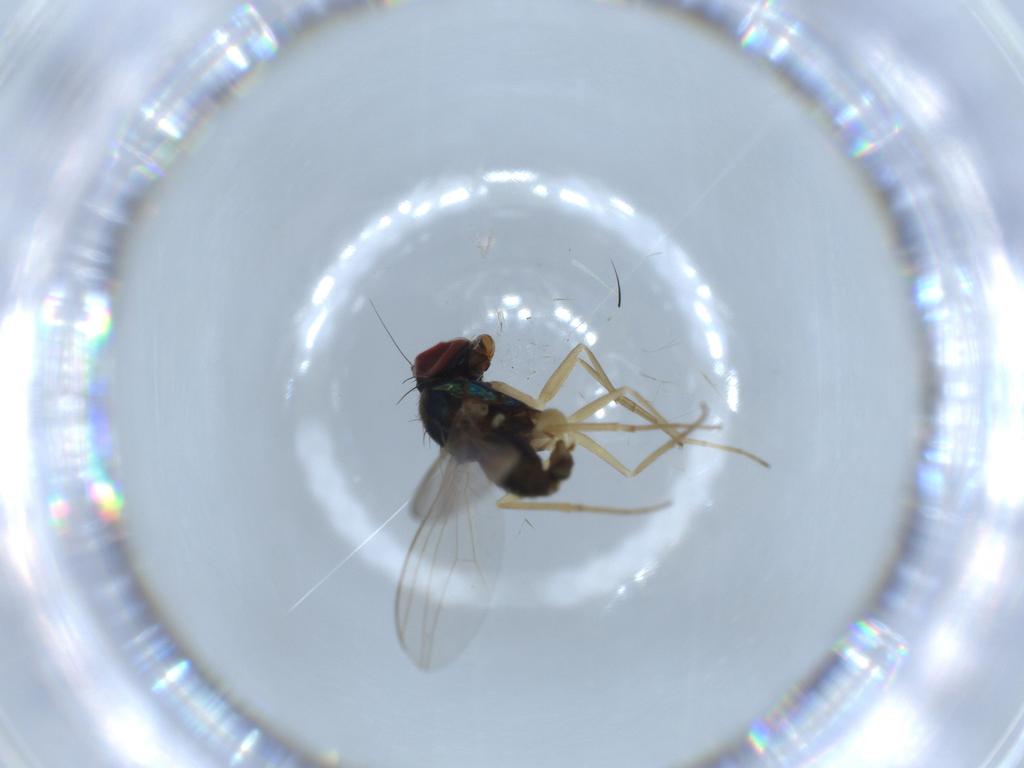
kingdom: Animalia
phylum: Arthropoda
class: Insecta
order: Diptera
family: Dolichopodidae
